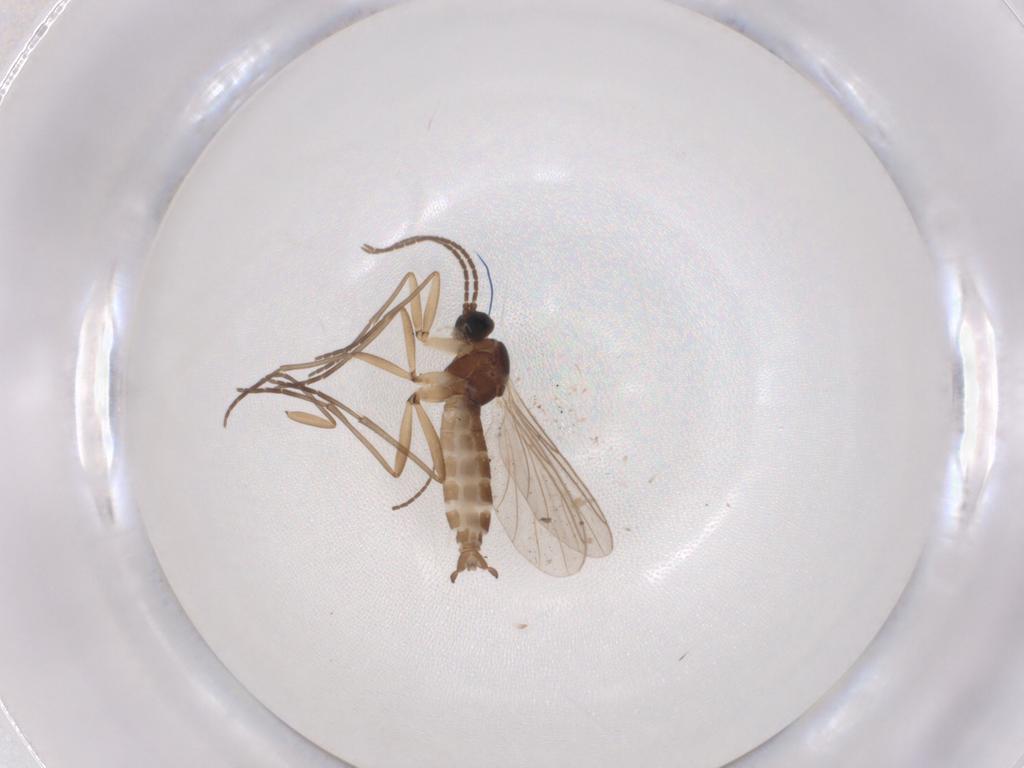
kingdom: Animalia
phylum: Arthropoda
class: Insecta
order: Diptera
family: Sciaridae
